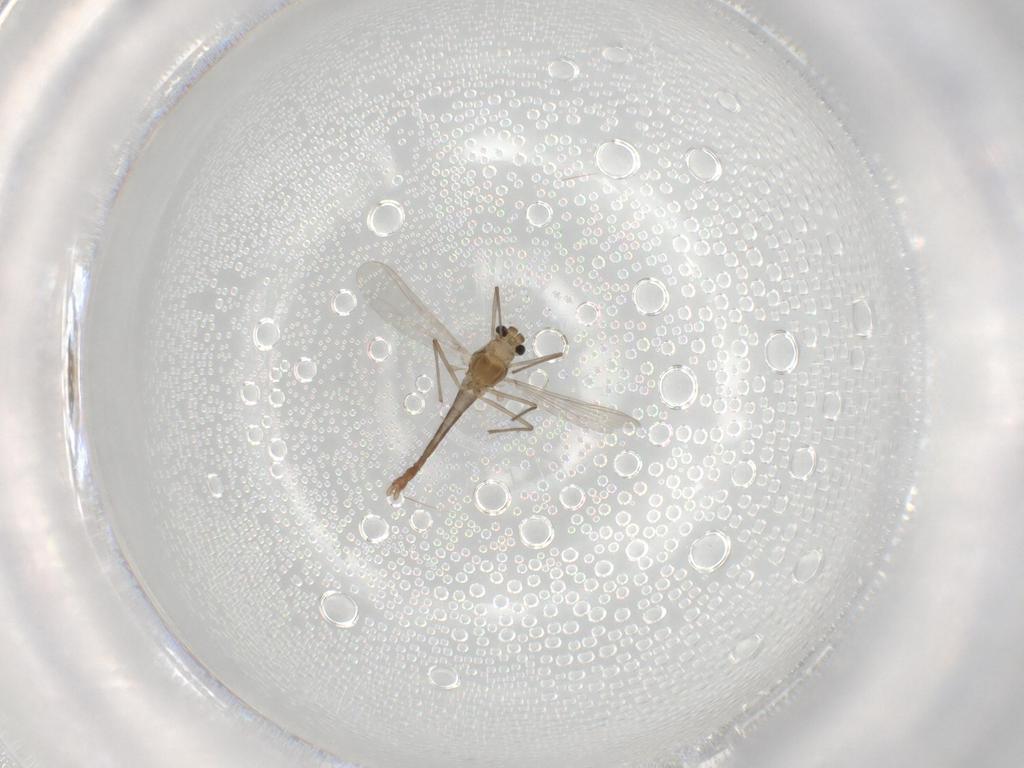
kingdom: Animalia
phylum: Arthropoda
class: Insecta
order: Diptera
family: Chironomidae
